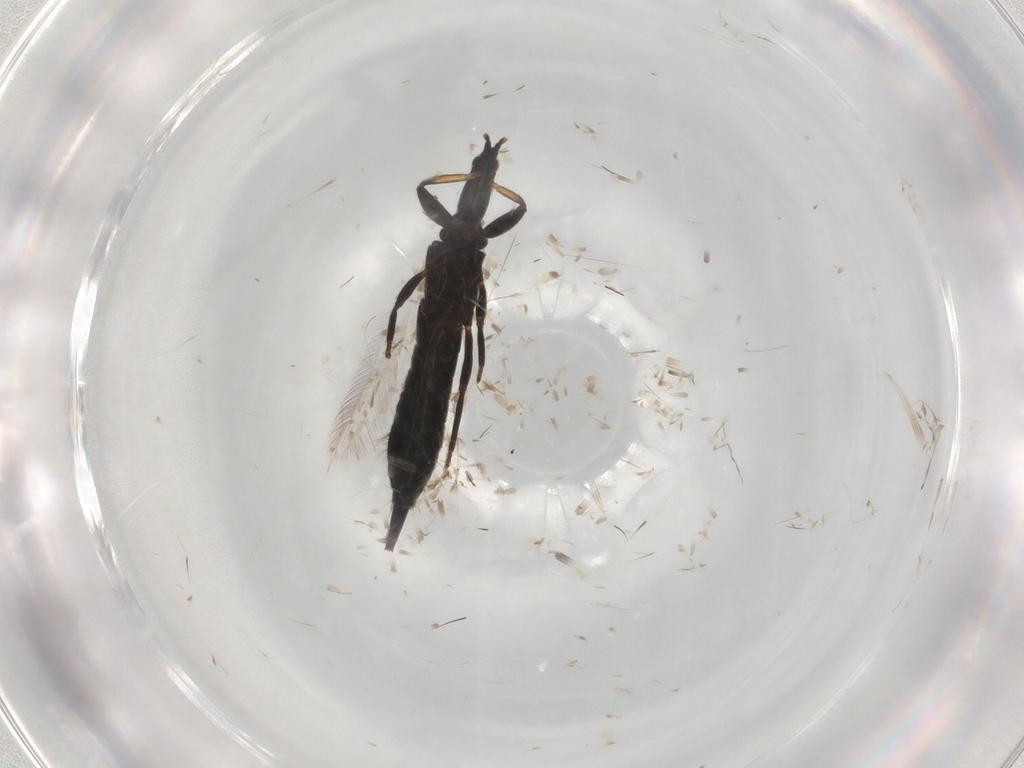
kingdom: Animalia
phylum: Arthropoda
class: Insecta
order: Thysanoptera
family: Phlaeothripidae
